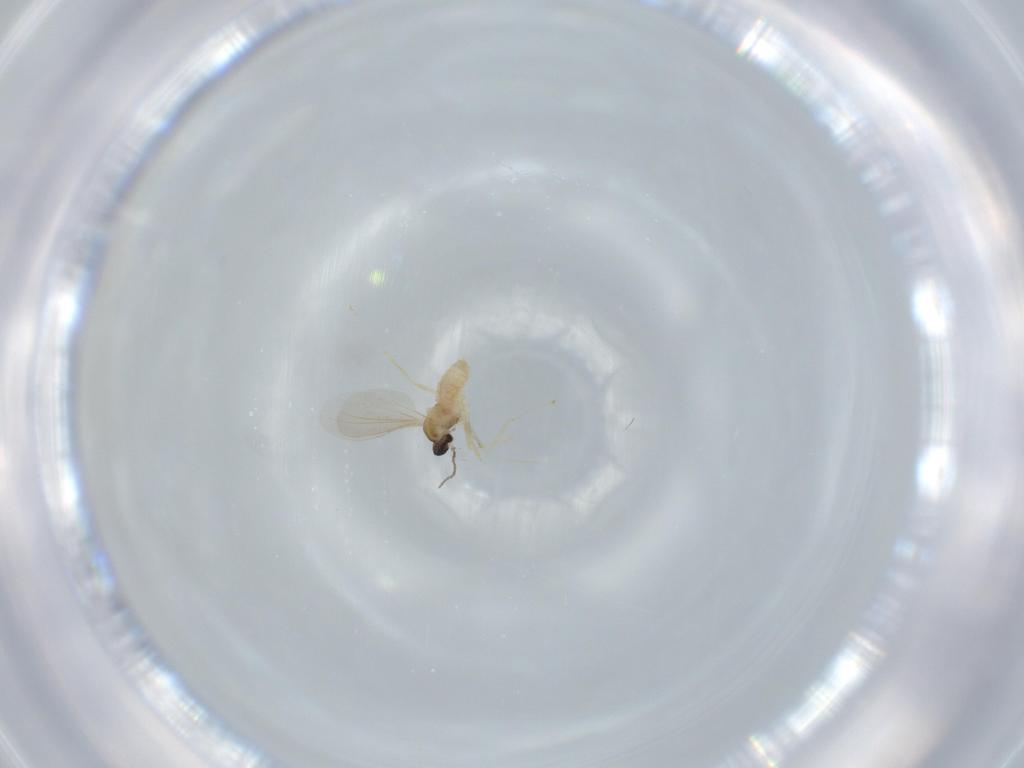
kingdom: Animalia
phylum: Arthropoda
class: Insecta
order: Diptera
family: Cecidomyiidae
